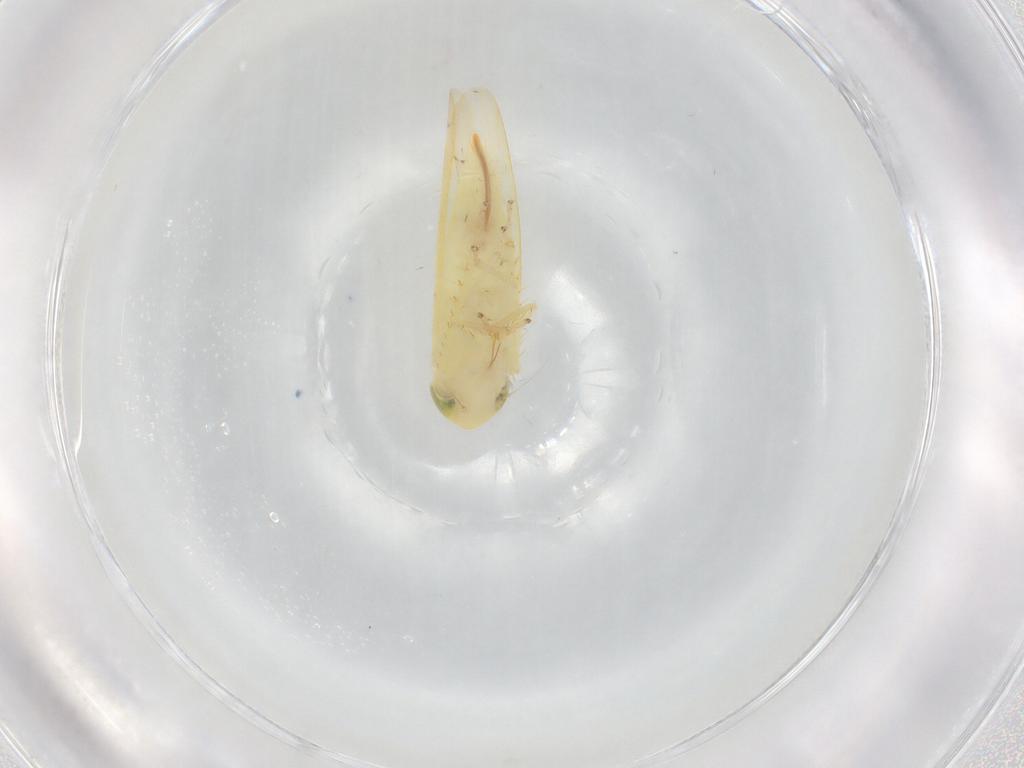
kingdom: Animalia
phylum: Arthropoda
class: Insecta
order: Hemiptera
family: Cicadellidae
